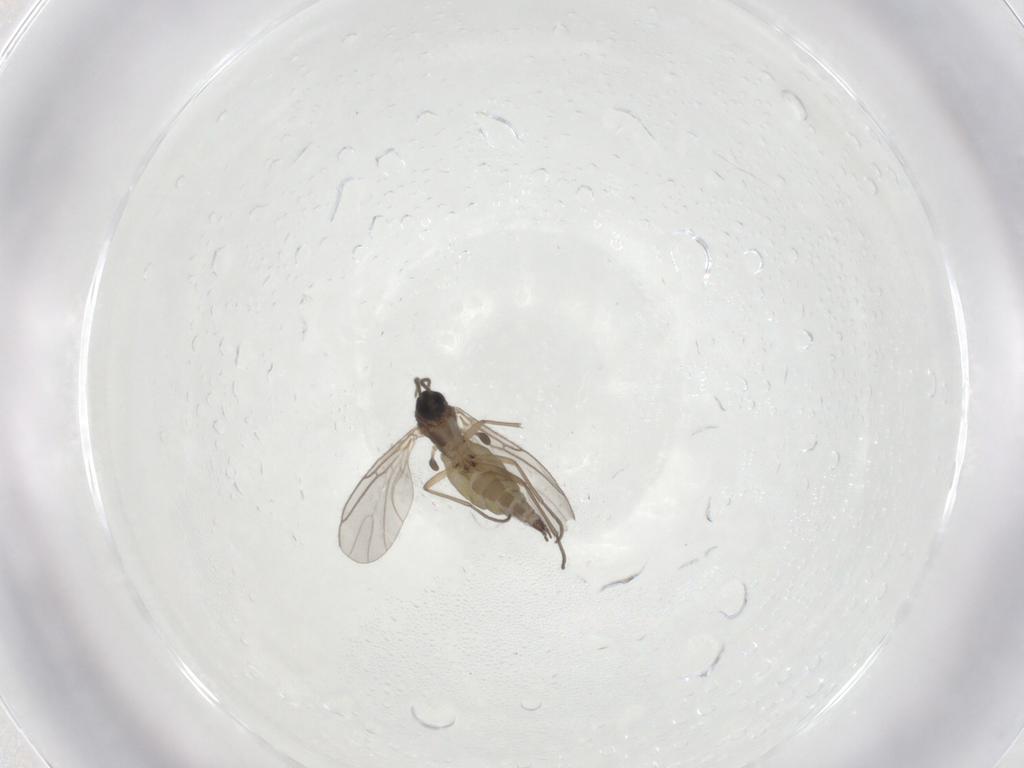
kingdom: Animalia
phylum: Arthropoda
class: Insecta
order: Diptera
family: Sciaridae
